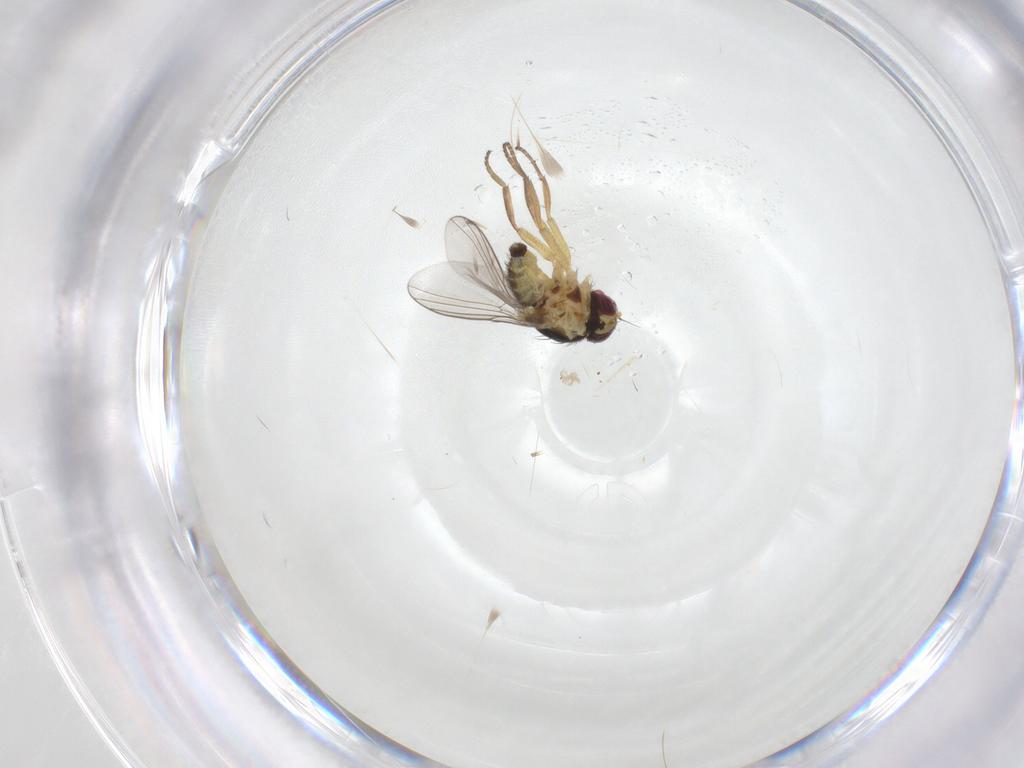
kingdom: Animalia
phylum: Arthropoda
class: Insecta
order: Diptera
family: Agromyzidae
